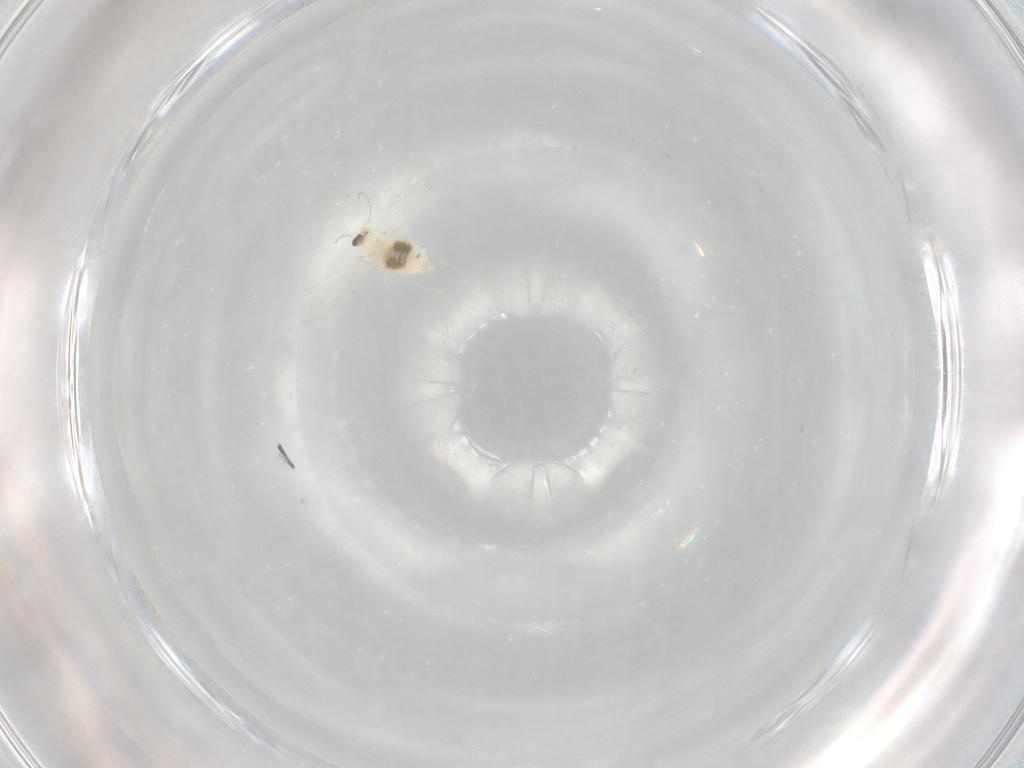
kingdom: Animalia
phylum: Arthropoda
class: Insecta
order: Diptera
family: Cecidomyiidae
